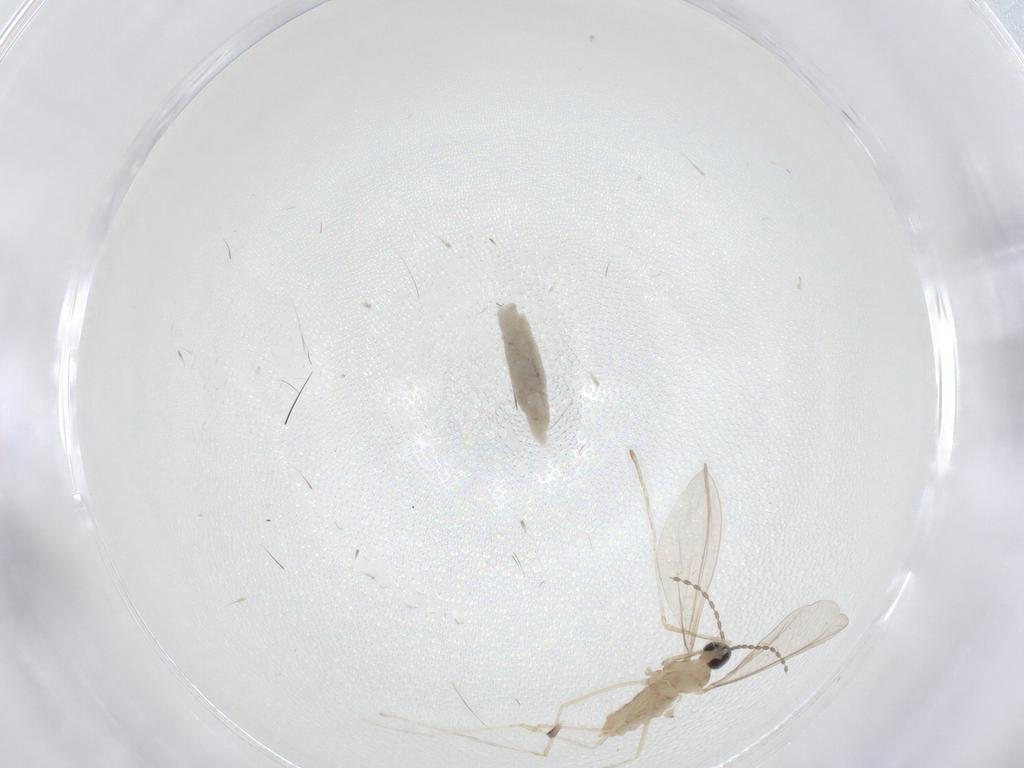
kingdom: Animalia
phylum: Arthropoda
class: Insecta
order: Diptera
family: Cecidomyiidae
